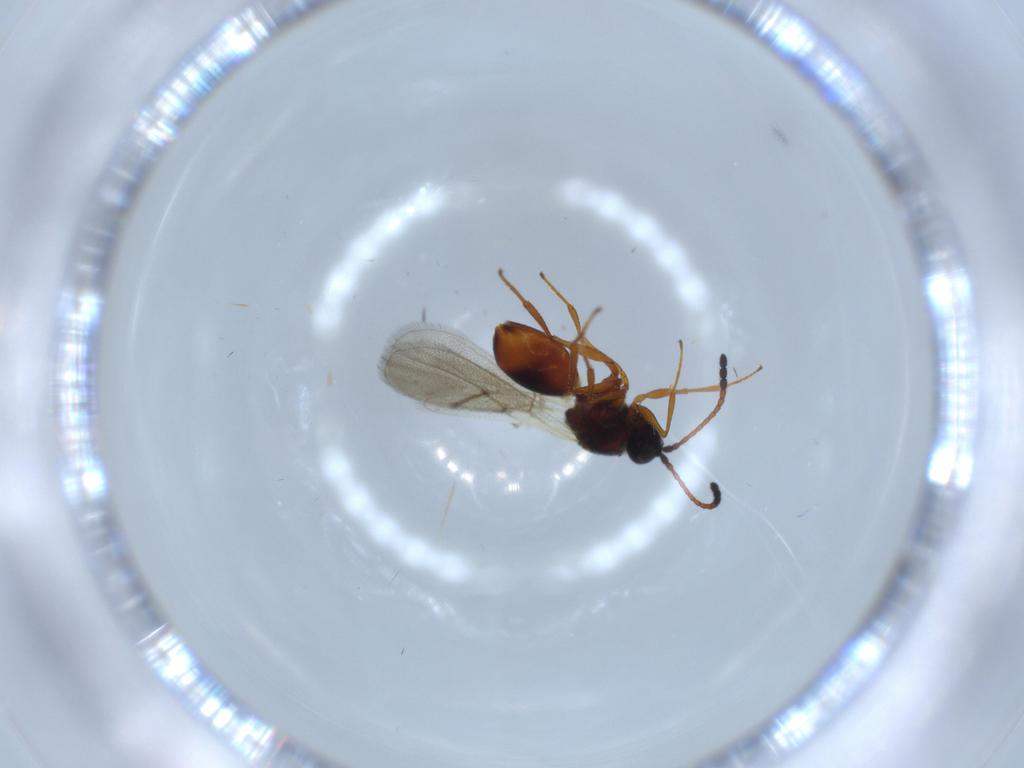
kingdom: Animalia
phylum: Arthropoda
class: Insecta
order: Hymenoptera
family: Figitidae
